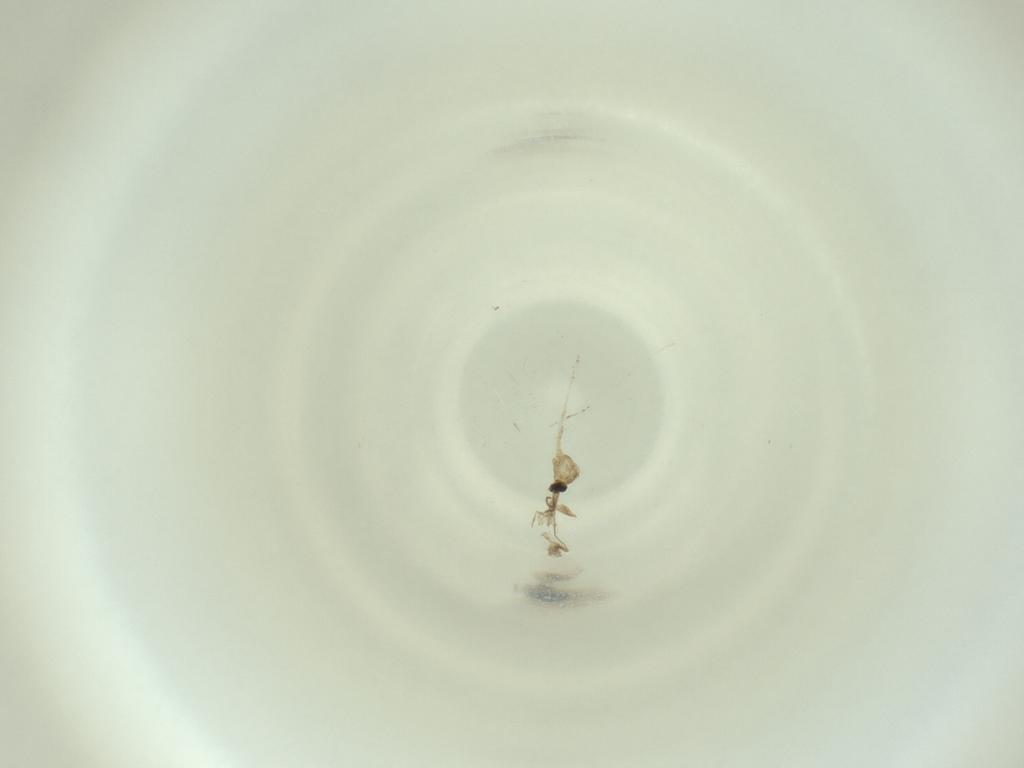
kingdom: Animalia
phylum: Arthropoda
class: Insecta
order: Diptera
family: Cecidomyiidae
